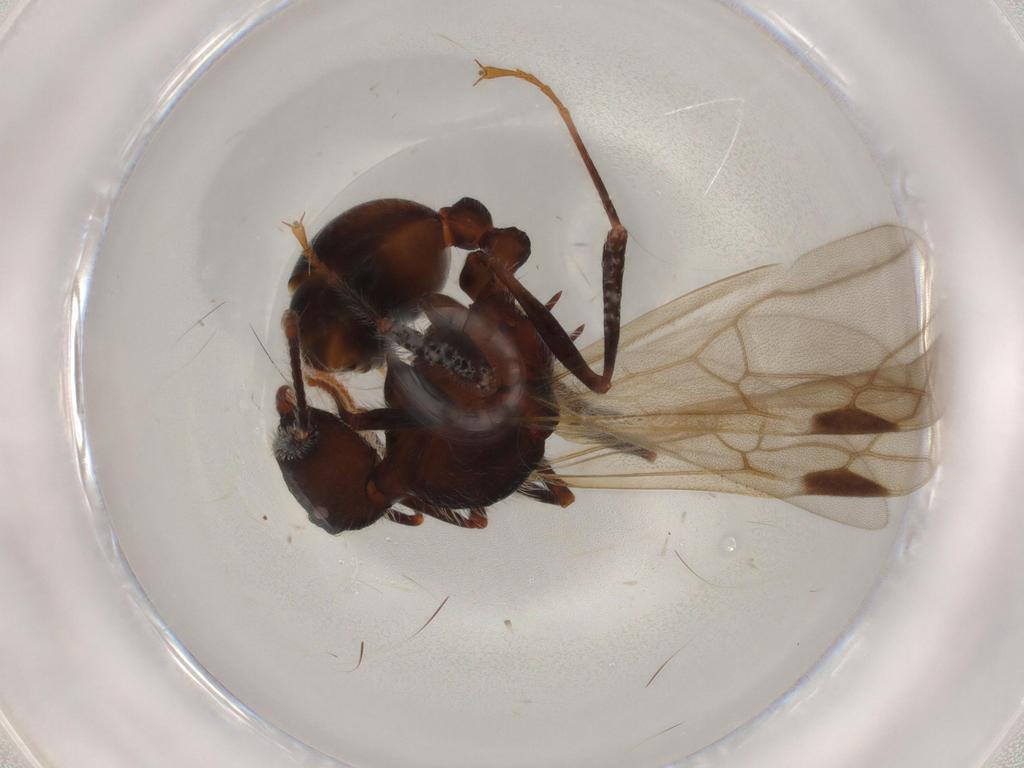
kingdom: Animalia
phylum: Arthropoda
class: Insecta
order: Hymenoptera
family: Formicidae
